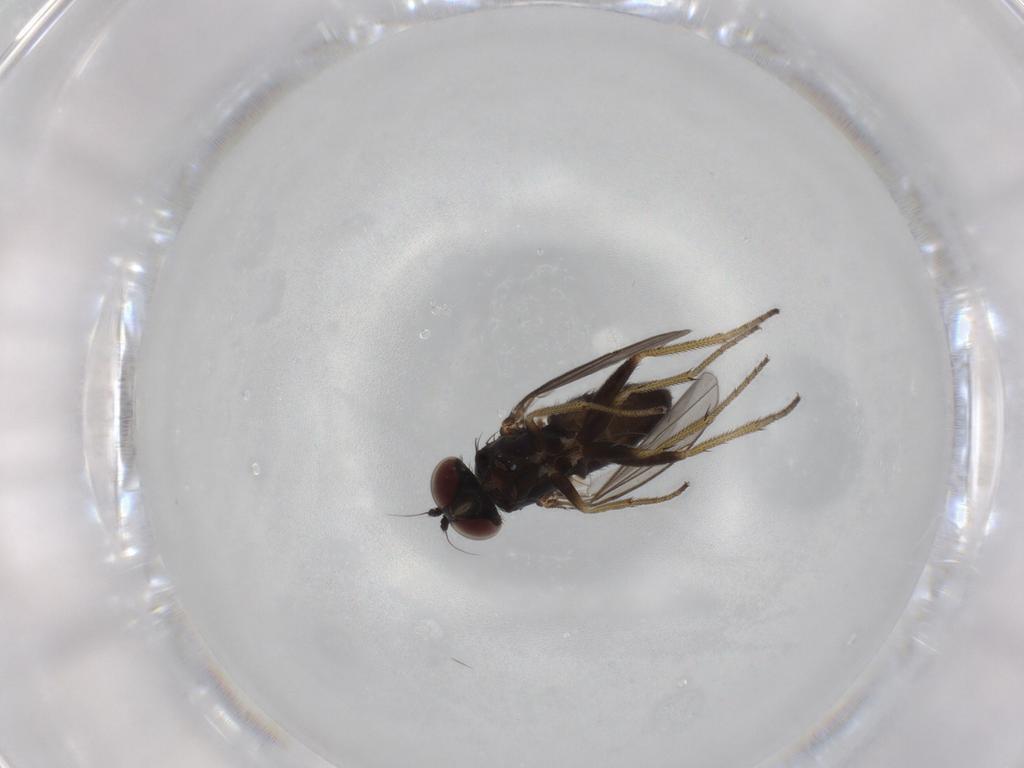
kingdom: Animalia
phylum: Arthropoda
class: Insecta
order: Diptera
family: Dolichopodidae
